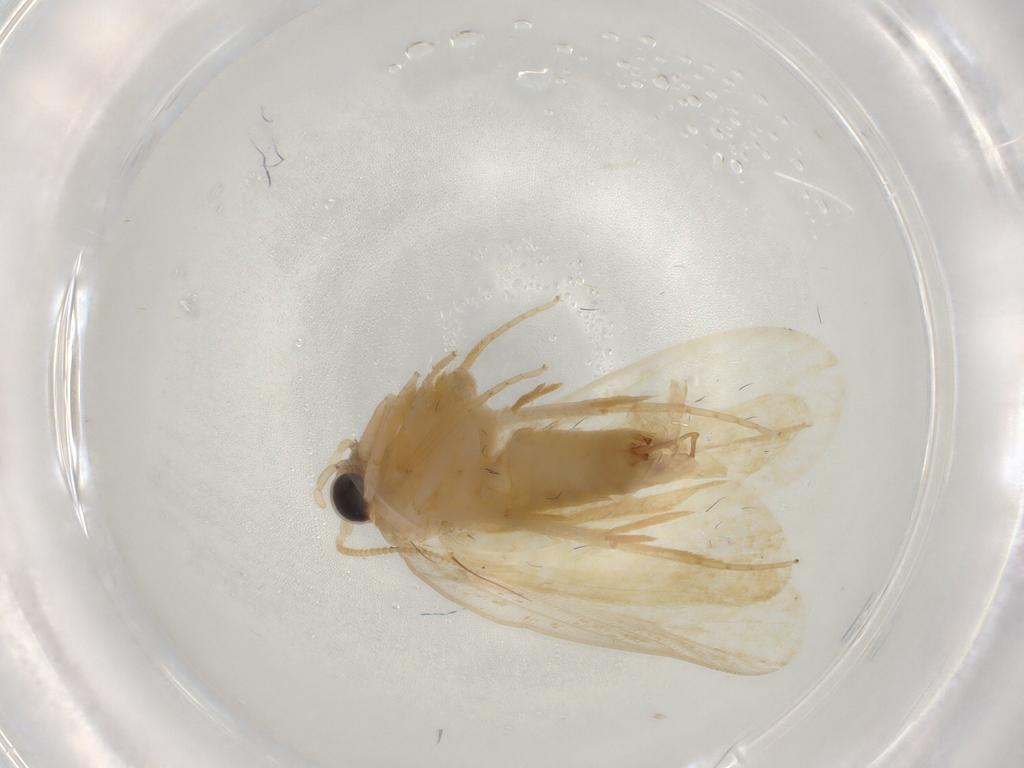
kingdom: Animalia
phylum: Arthropoda
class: Insecta
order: Lepidoptera
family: Psychidae
